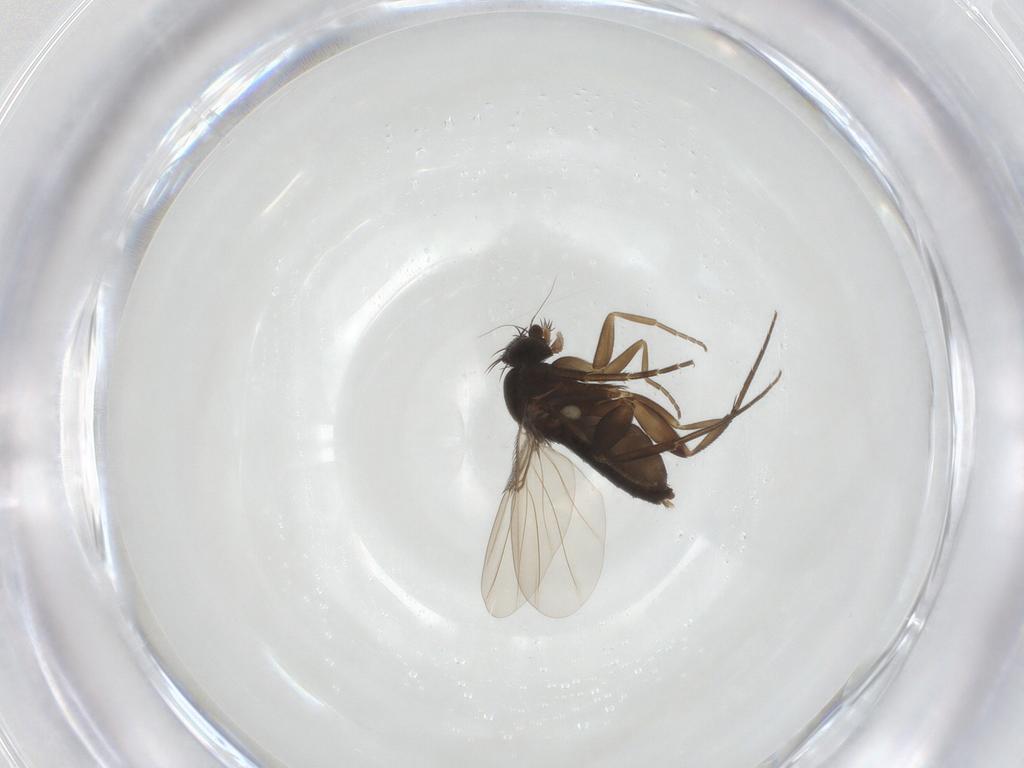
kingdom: Animalia
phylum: Arthropoda
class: Insecta
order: Diptera
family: Phoridae
